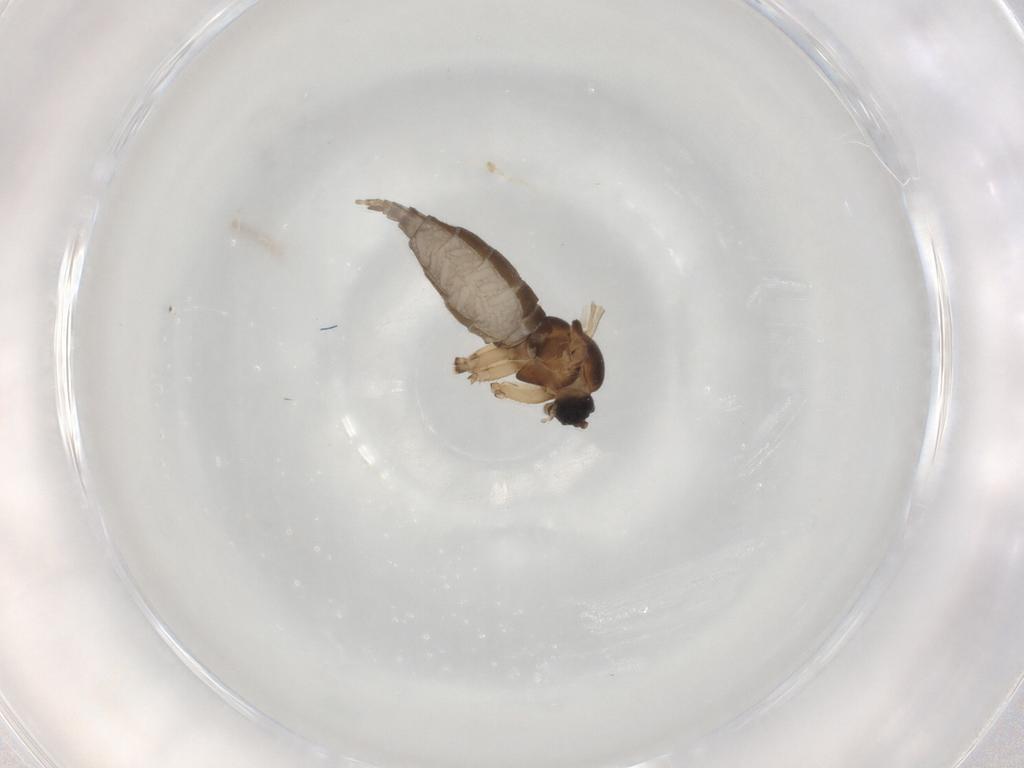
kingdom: Animalia
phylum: Arthropoda
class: Insecta
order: Diptera
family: Sciaridae
